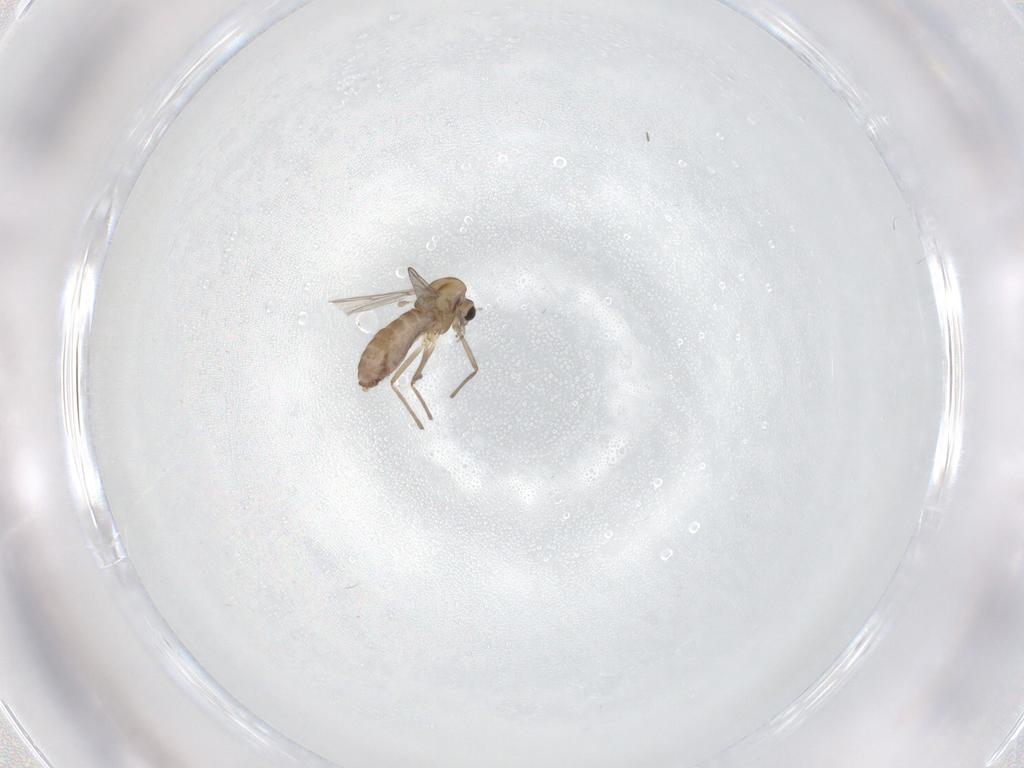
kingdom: Animalia
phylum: Arthropoda
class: Insecta
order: Diptera
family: Chironomidae
